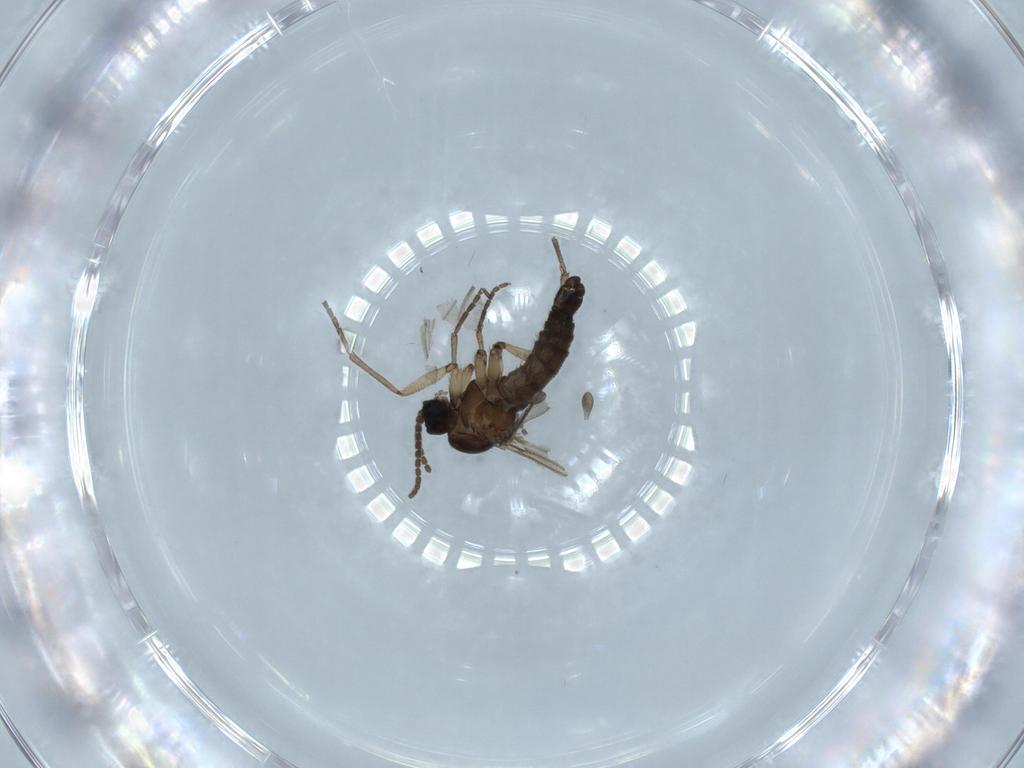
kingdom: Animalia
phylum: Arthropoda
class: Insecta
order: Diptera
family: Sciaridae
